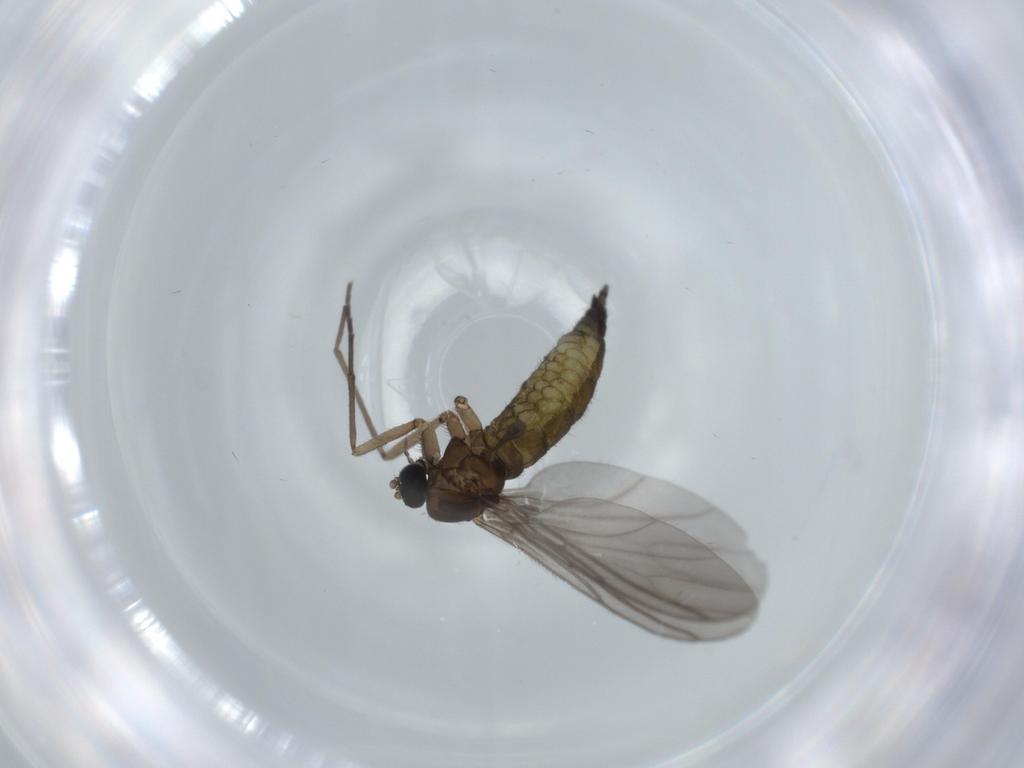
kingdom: Animalia
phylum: Arthropoda
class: Insecta
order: Diptera
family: Sciaridae
